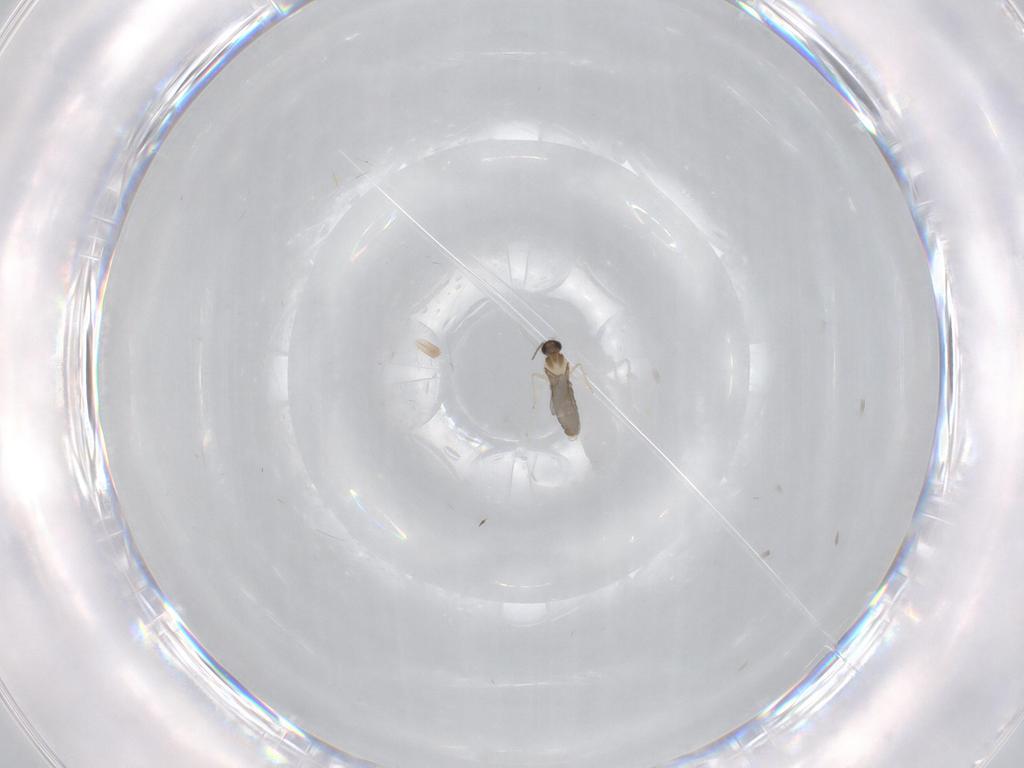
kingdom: Animalia
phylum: Arthropoda
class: Insecta
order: Diptera
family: Cecidomyiidae
